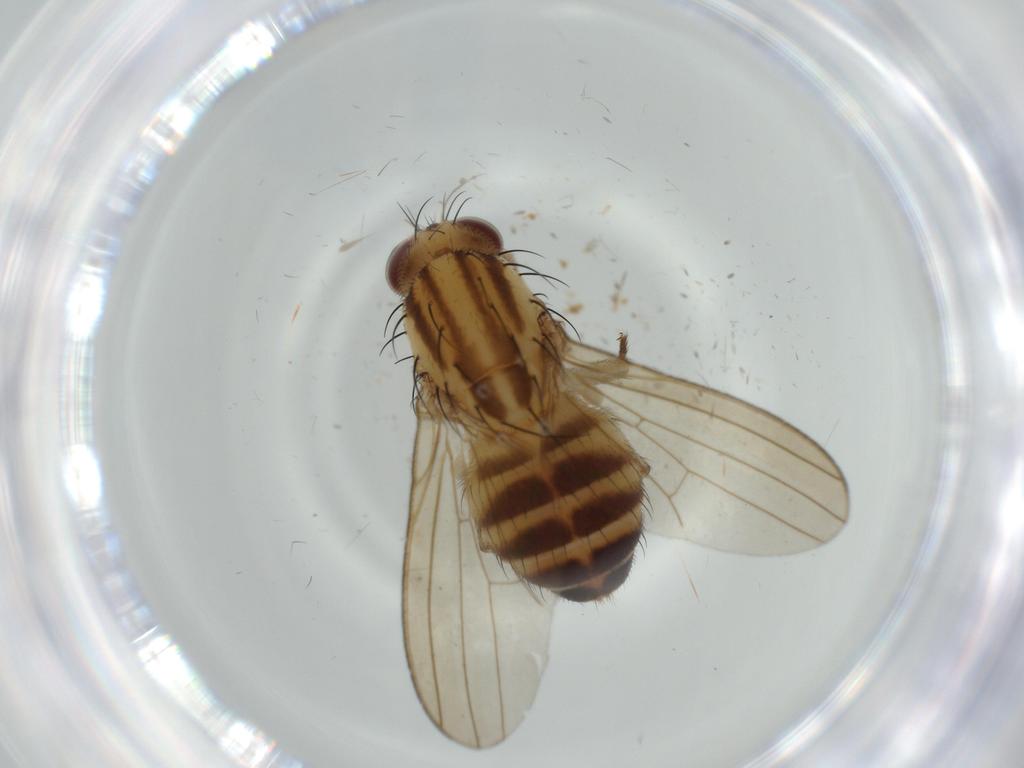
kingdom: Animalia
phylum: Arthropoda
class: Insecta
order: Diptera
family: Lauxaniidae
